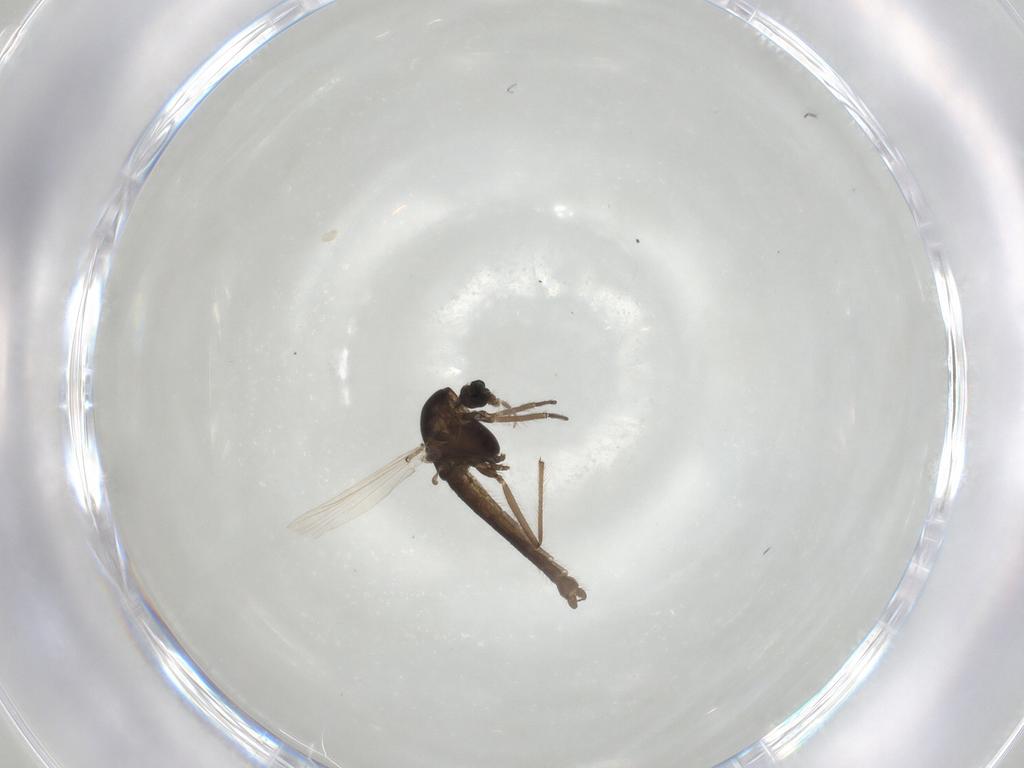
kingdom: Animalia
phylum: Arthropoda
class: Insecta
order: Diptera
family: Chironomidae
